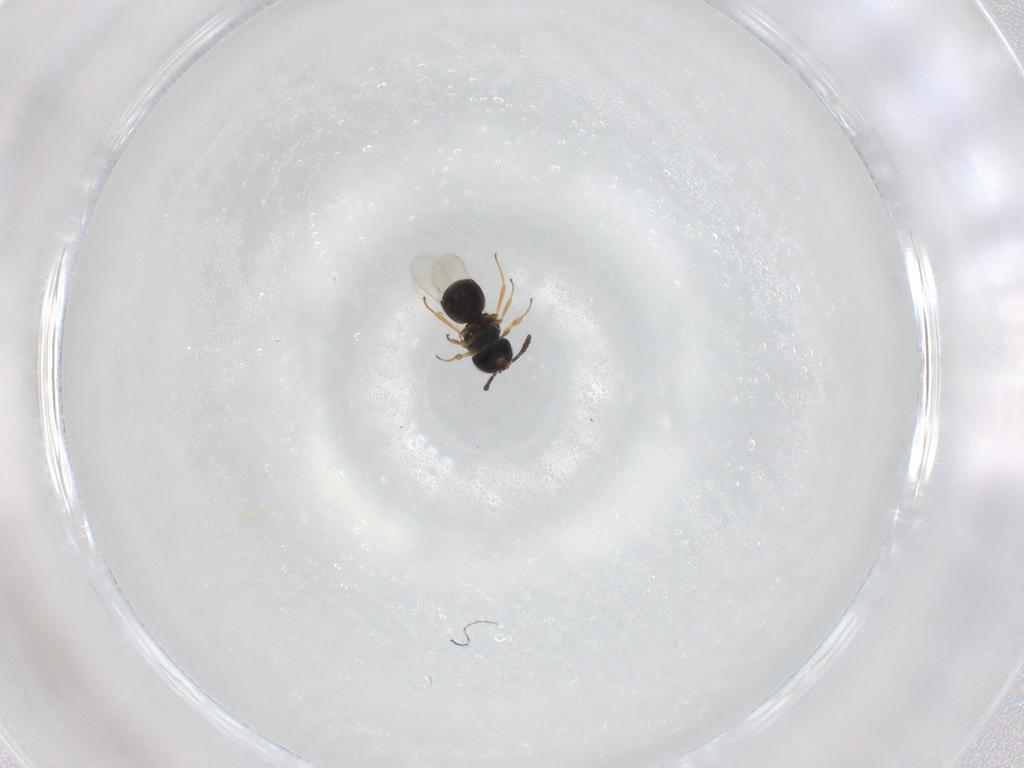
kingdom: Animalia
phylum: Arthropoda
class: Insecta
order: Hymenoptera
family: Scelionidae
